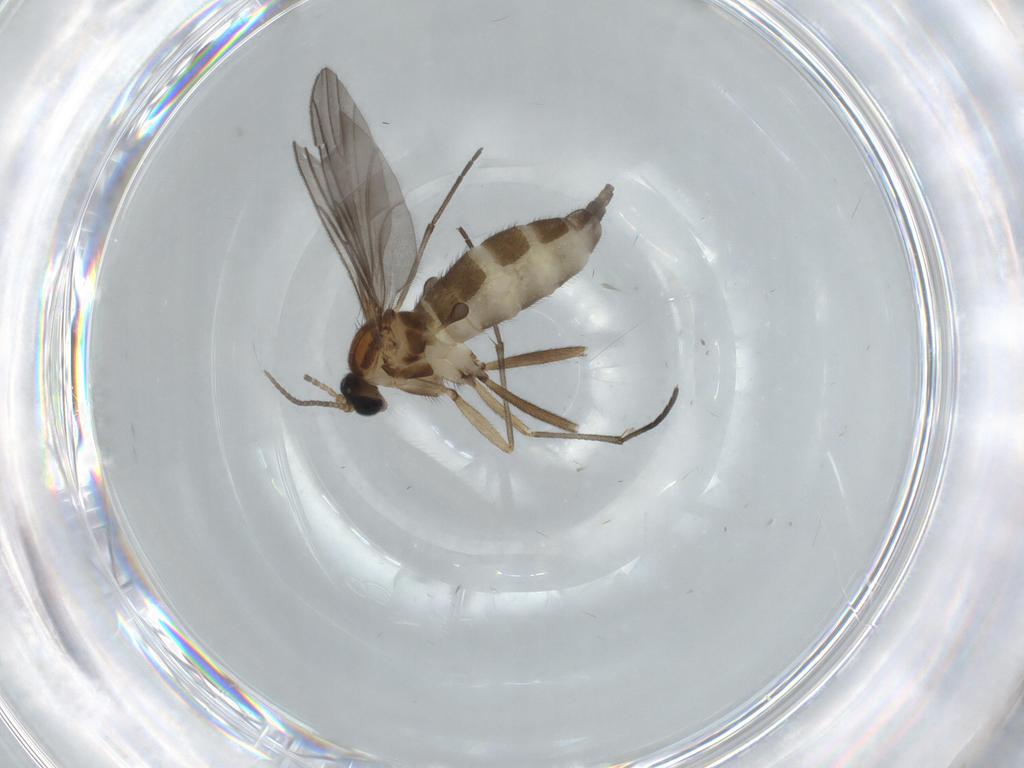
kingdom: Animalia
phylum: Arthropoda
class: Insecta
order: Diptera
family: Sciaridae
